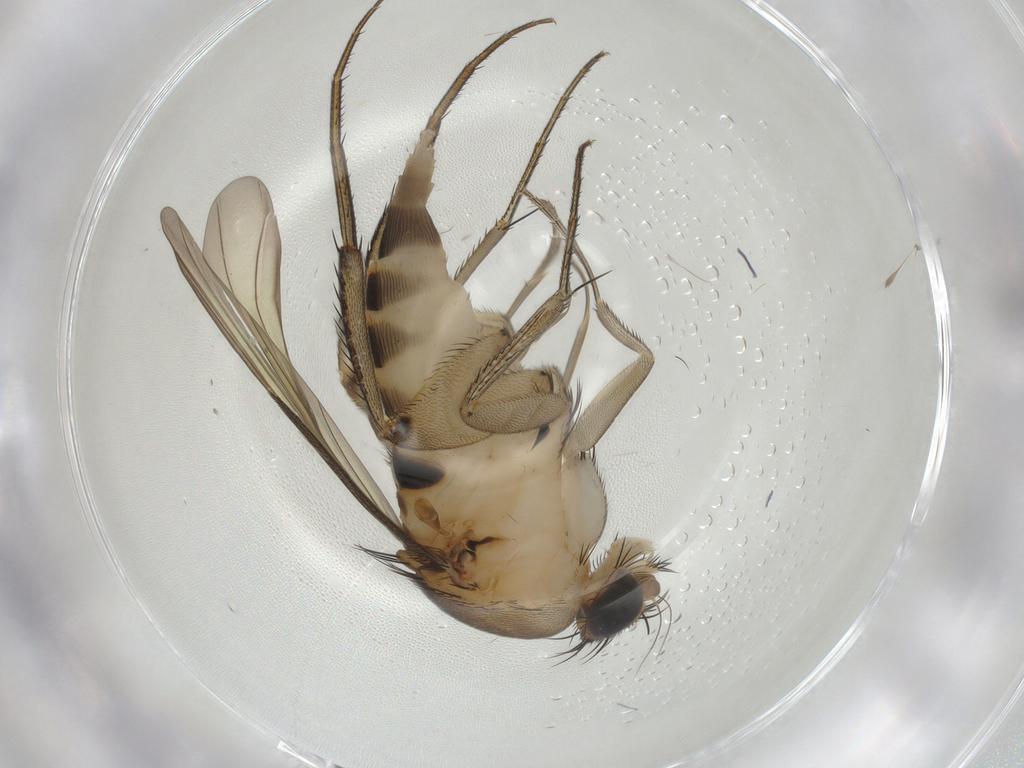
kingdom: Animalia
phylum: Arthropoda
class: Insecta
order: Diptera
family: Phoridae
